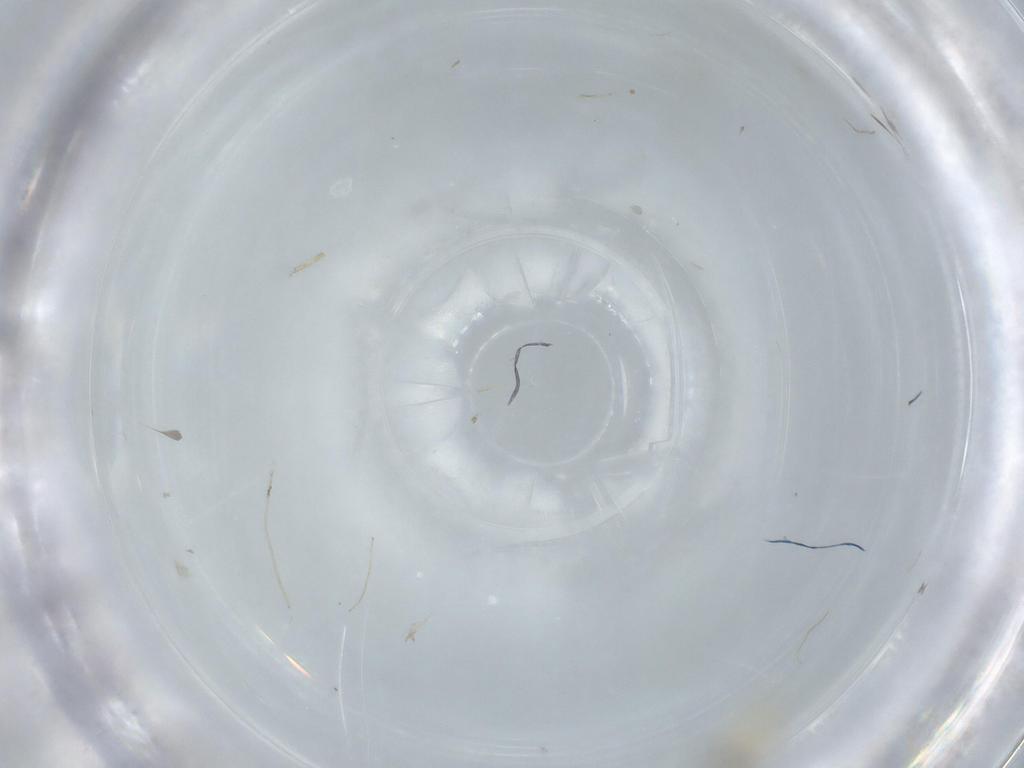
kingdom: Animalia
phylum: Arthropoda
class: Insecta
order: Diptera
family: Cecidomyiidae
